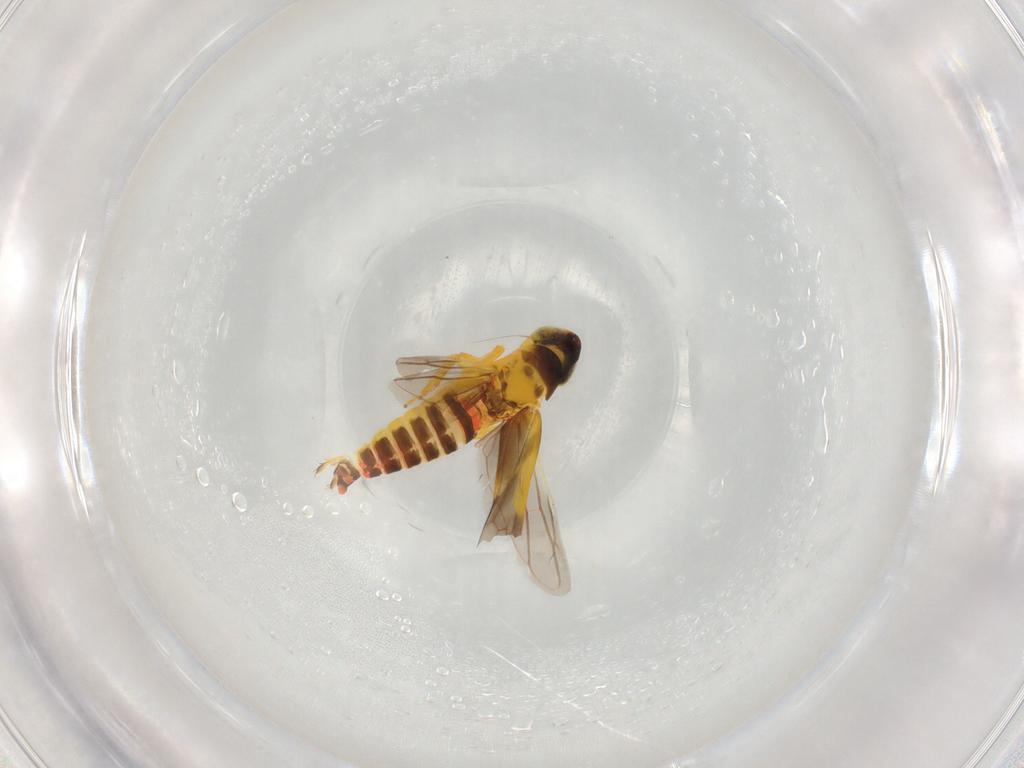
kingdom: Animalia
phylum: Arthropoda
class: Insecta
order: Hemiptera
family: Cicadellidae
